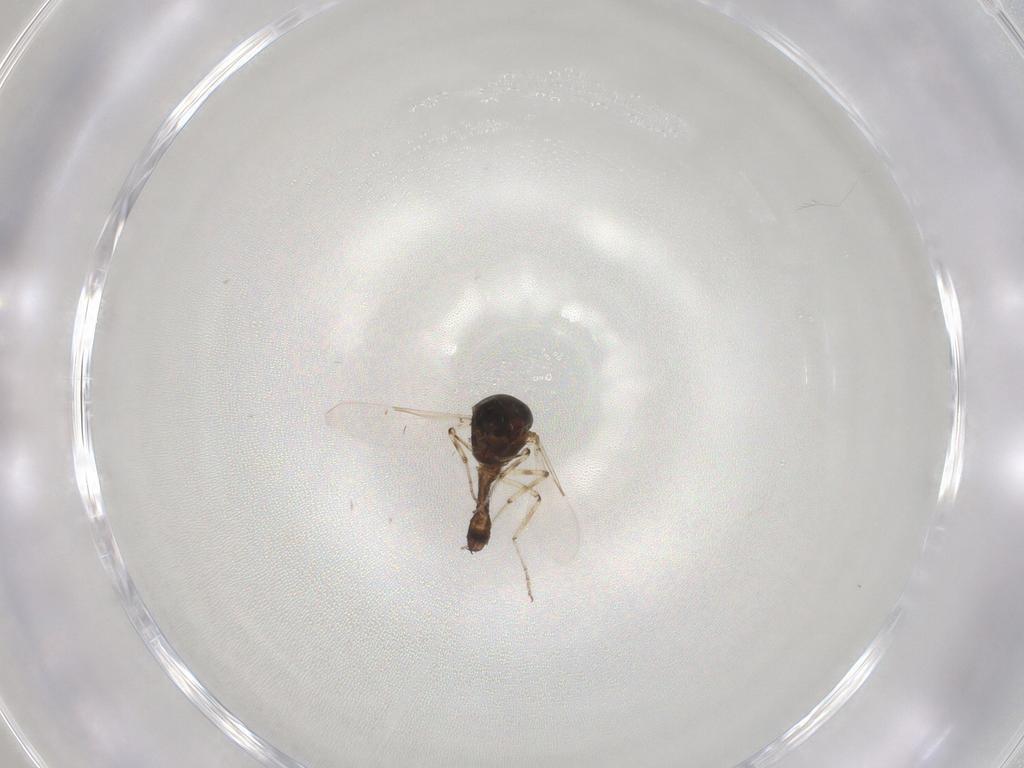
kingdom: Animalia
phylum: Arthropoda
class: Insecta
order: Diptera
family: Ceratopogonidae
